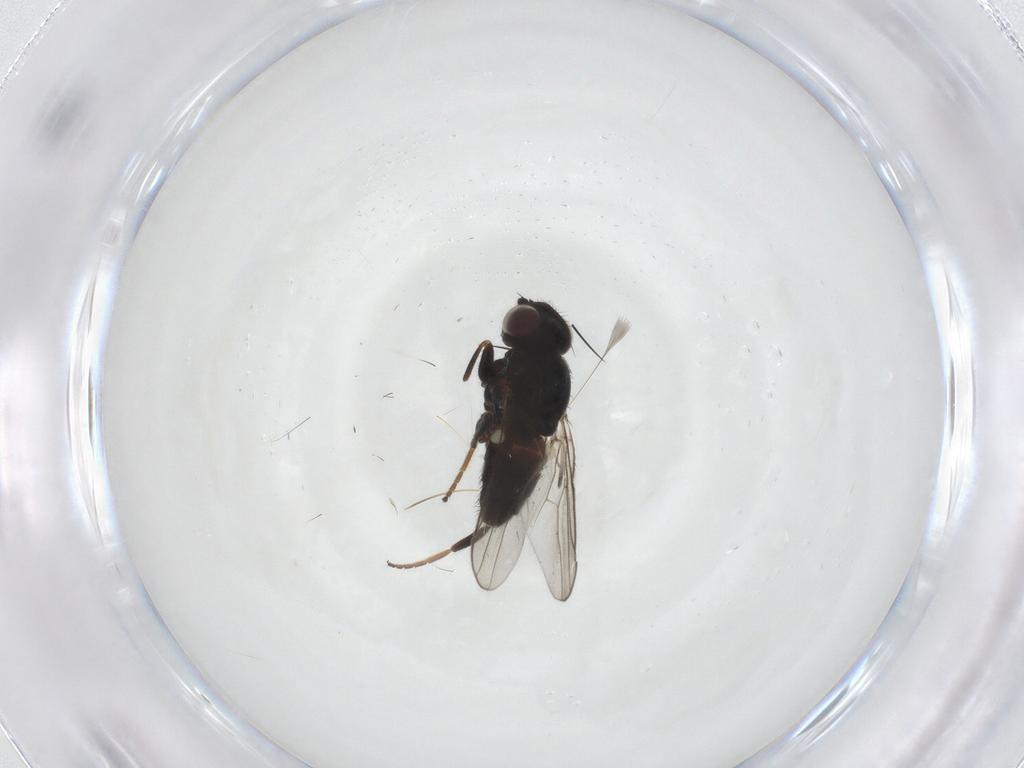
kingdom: Animalia
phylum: Arthropoda
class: Insecta
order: Diptera
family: Chloropidae
